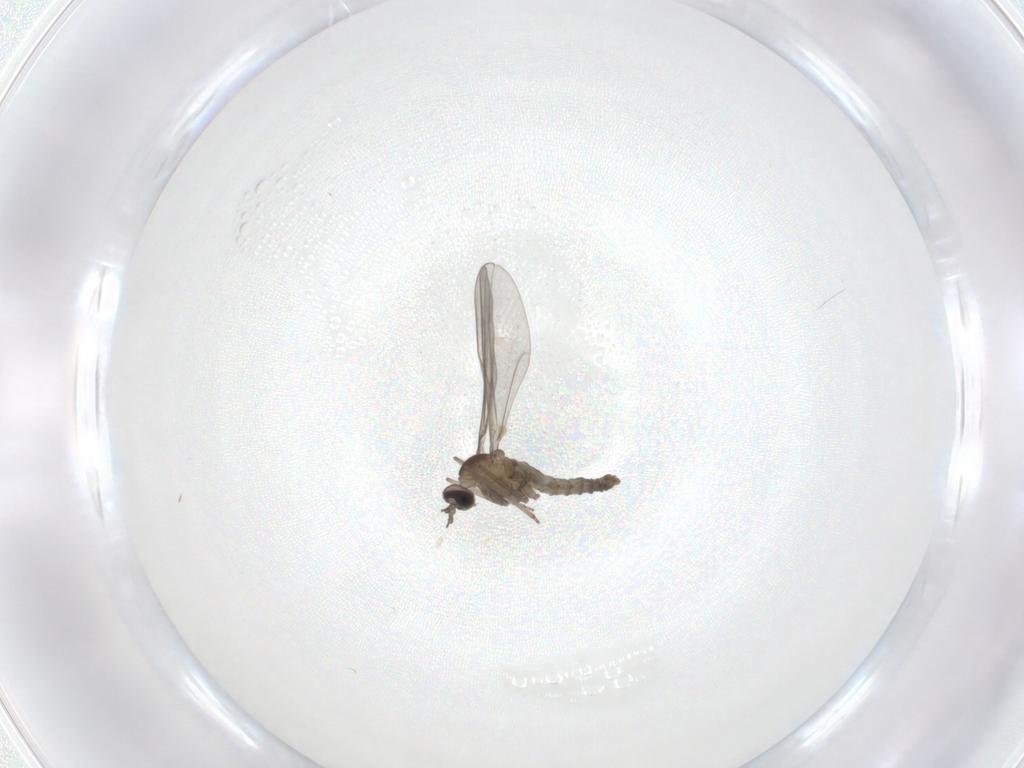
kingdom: Animalia
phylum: Arthropoda
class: Insecta
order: Diptera
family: Cecidomyiidae
